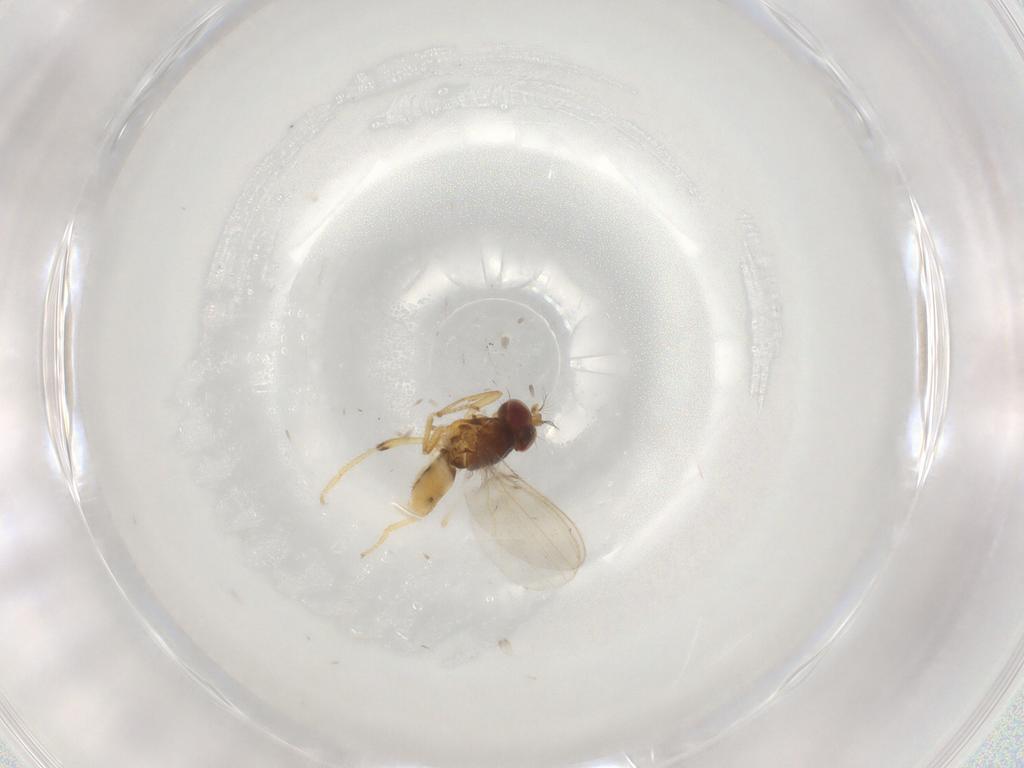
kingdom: Animalia
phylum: Arthropoda
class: Insecta
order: Diptera
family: Periscelididae
